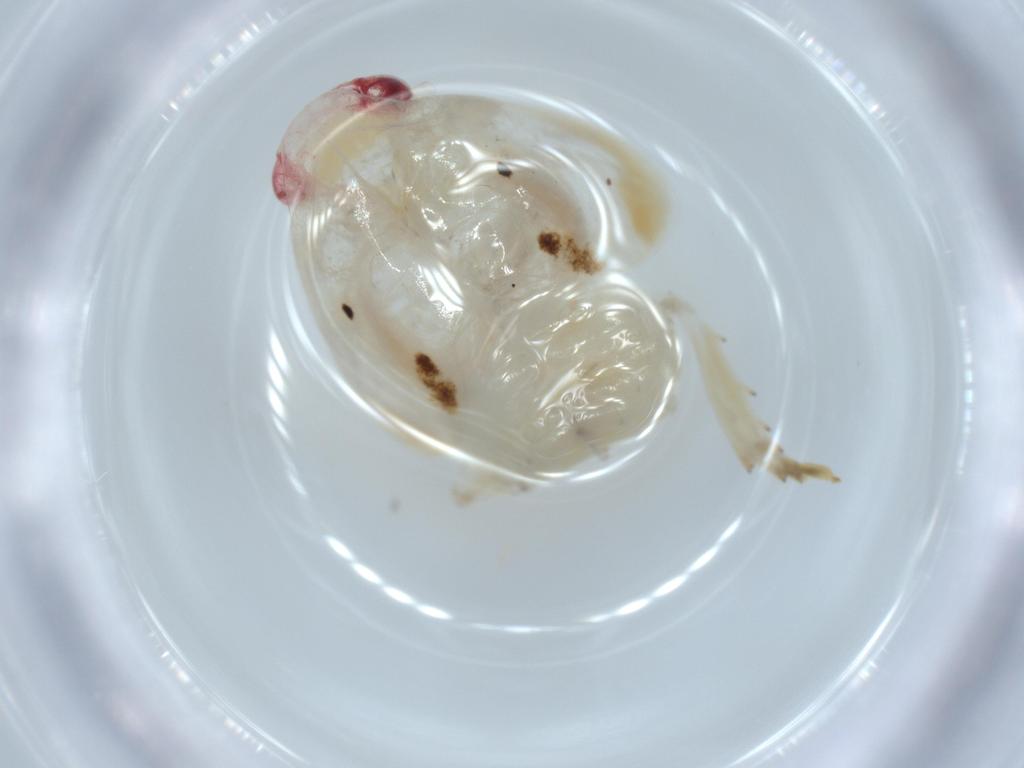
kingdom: Animalia
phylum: Arthropoda
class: Insecta
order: Hemiptera
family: Flatidae
